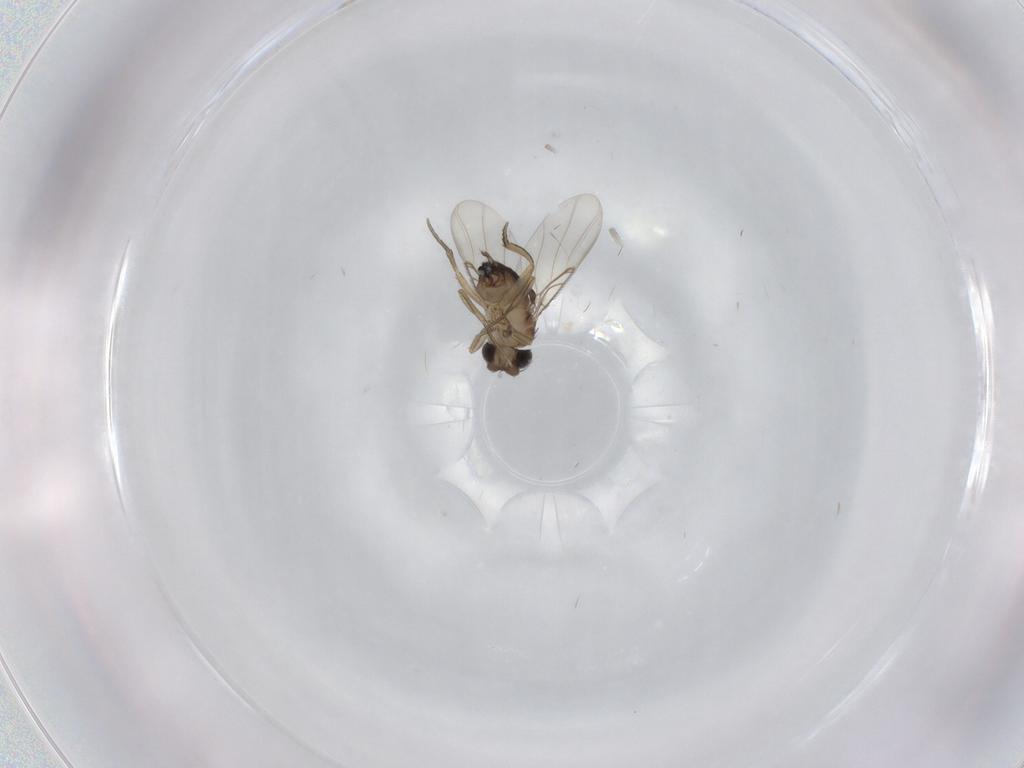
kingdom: Animalia
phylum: Arthropoda
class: Insecta
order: Diptera
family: Phoridae
